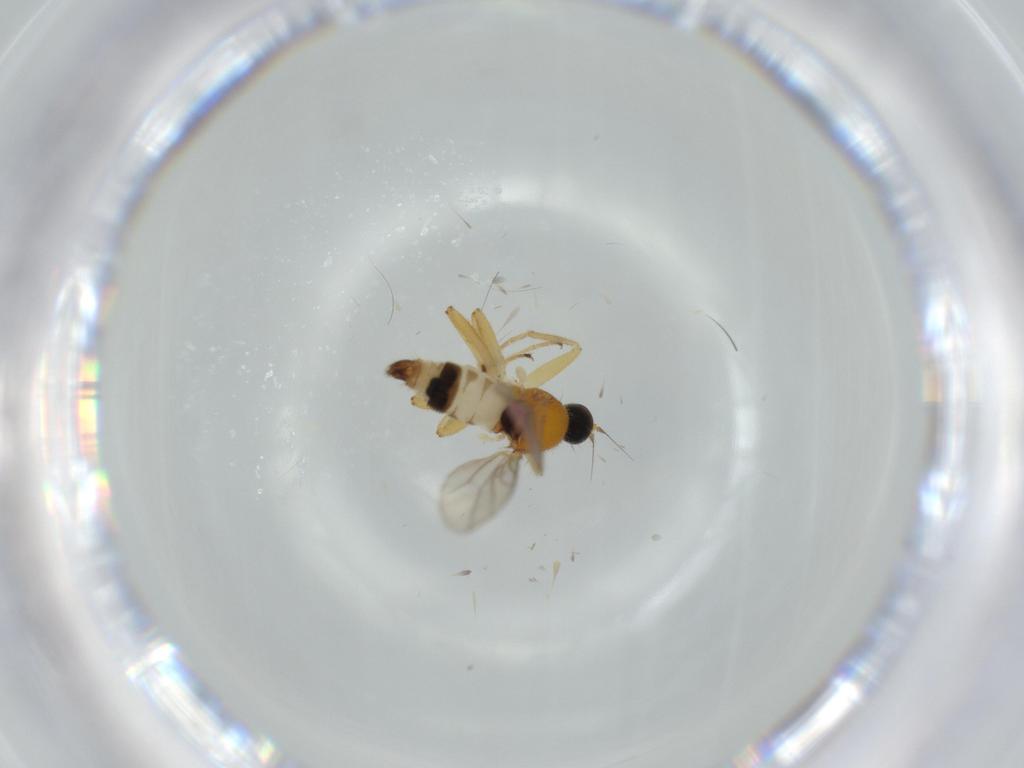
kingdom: Animalia
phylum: Arthropoda
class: Insecta
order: Diptera
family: Hybotidae
